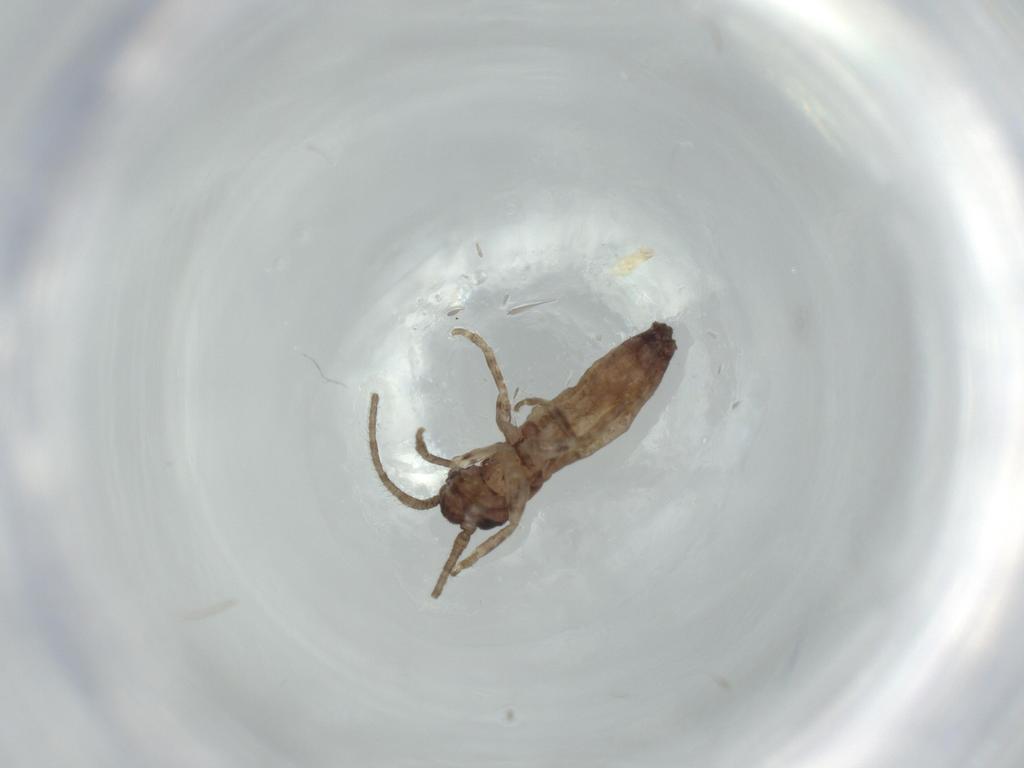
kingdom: Animalia
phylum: Arthropoda
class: Insecta
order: Orthoptera
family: Gryllidae
